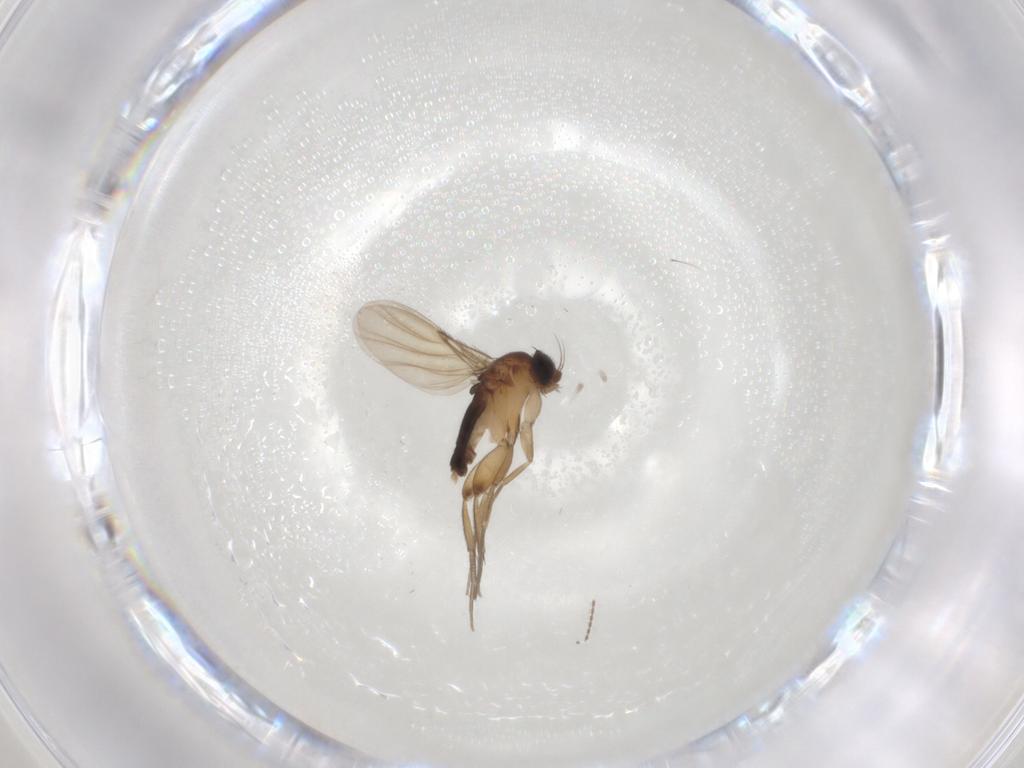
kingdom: Animalia
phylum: Arthropoda
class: Insecta
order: Diptera
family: Phoridae
